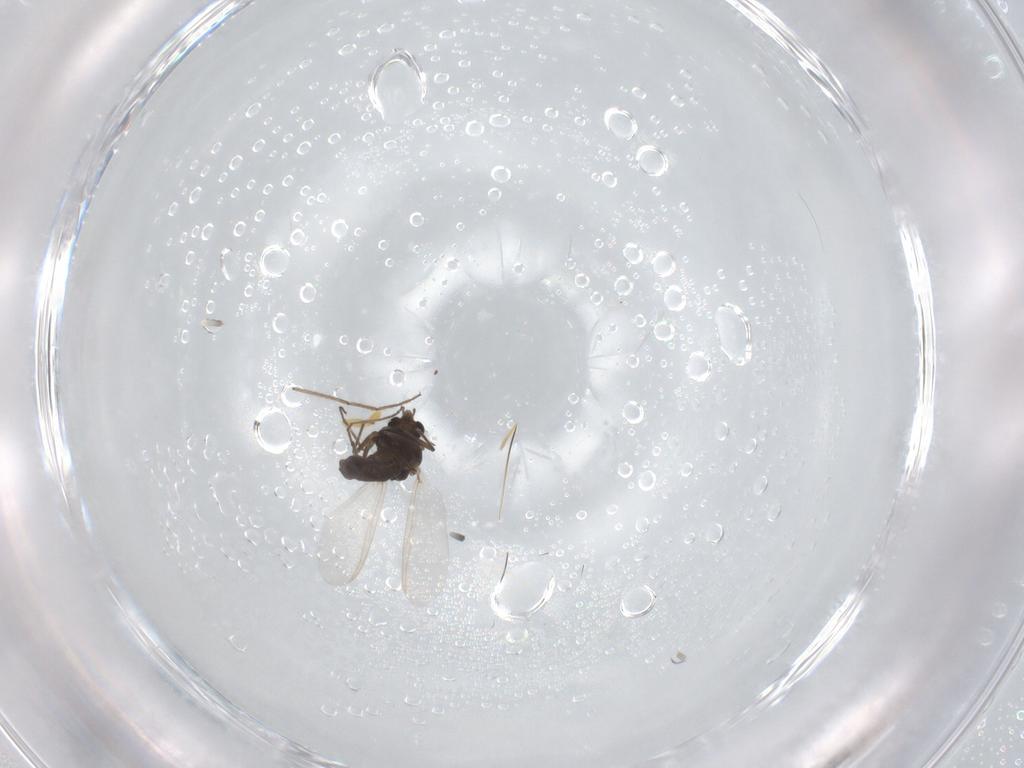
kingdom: Animalia
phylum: Arthropoda
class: Insecta
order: Diptera
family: Chironomidae
